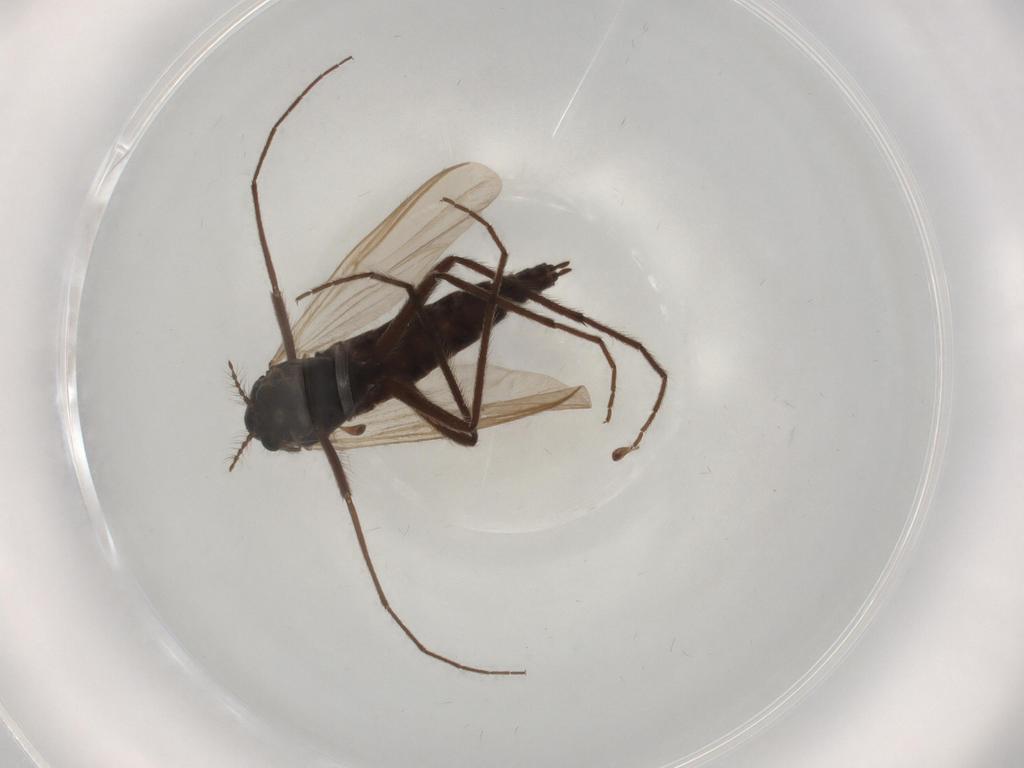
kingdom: Animalia
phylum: Arthropoda
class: Insecta
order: Diptera
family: Hybotidae
